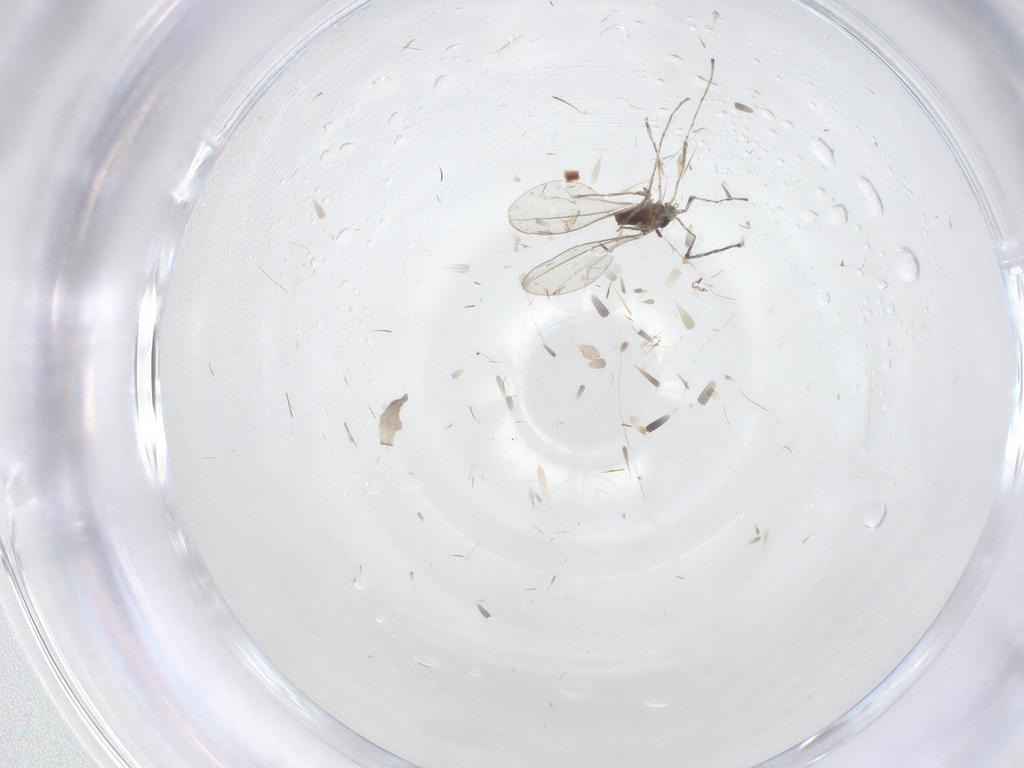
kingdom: Animalia
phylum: Arthropoda
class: Insecta
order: Diptera
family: Cecidomyiidae
